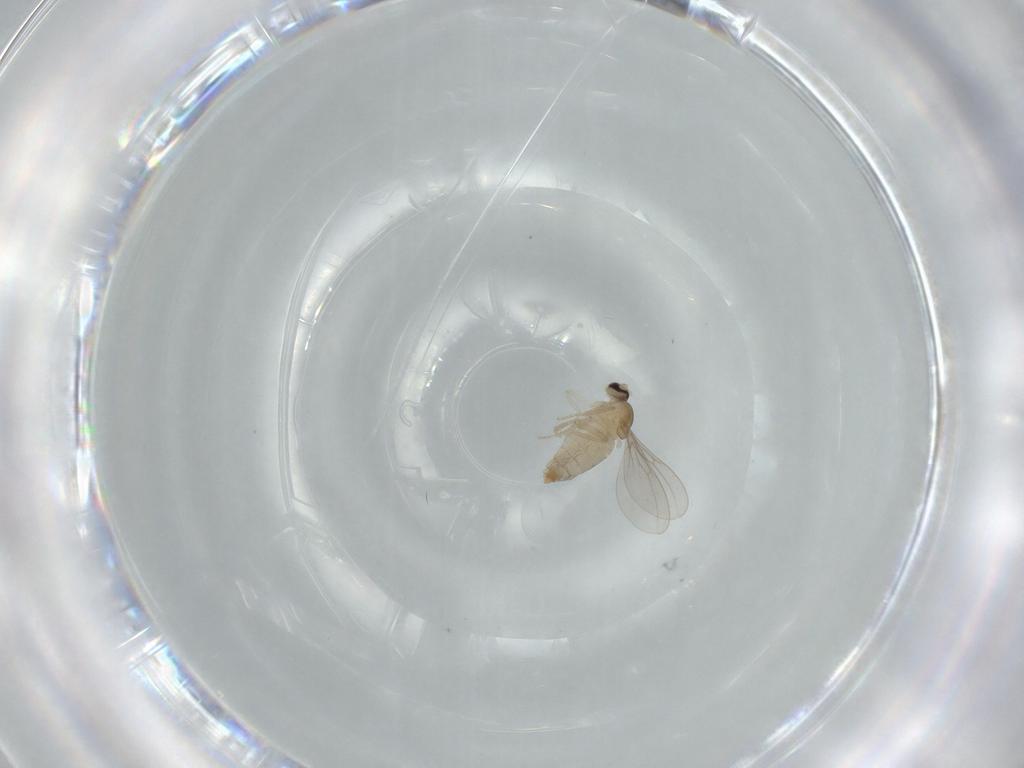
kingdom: Animalia
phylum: Arthropoda
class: Insecta
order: Diptera
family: Cecidomyiidae
